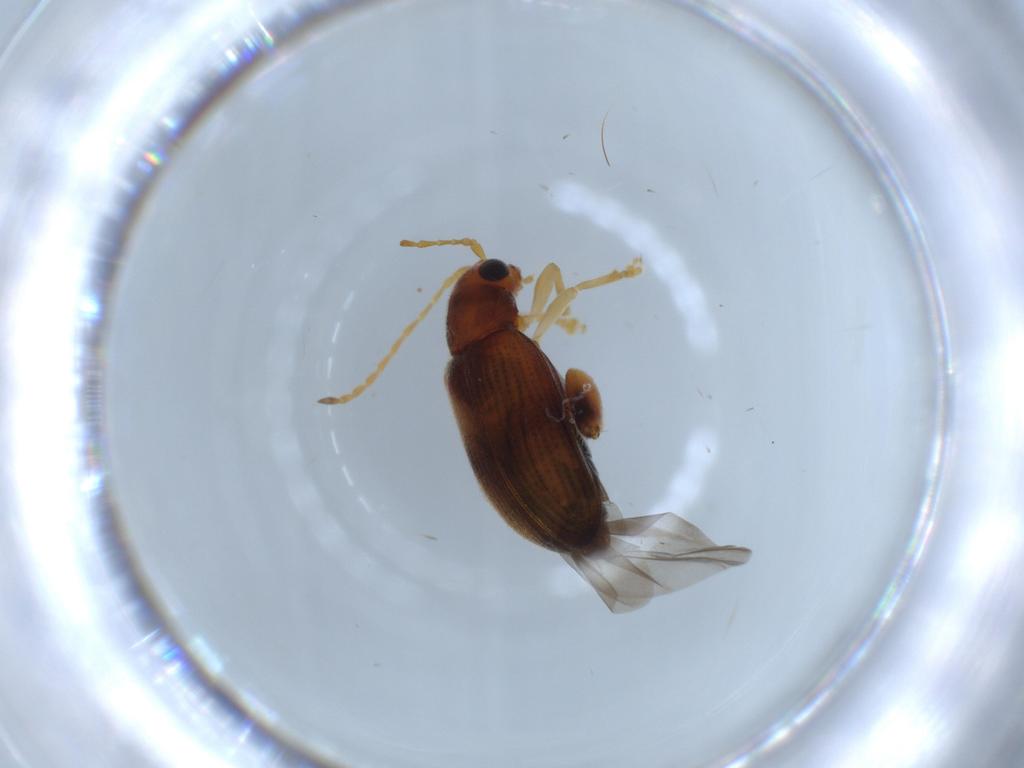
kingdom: Animalia
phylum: Arthropoda
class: Insecta
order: Coleoptera
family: Chrysomelidae
